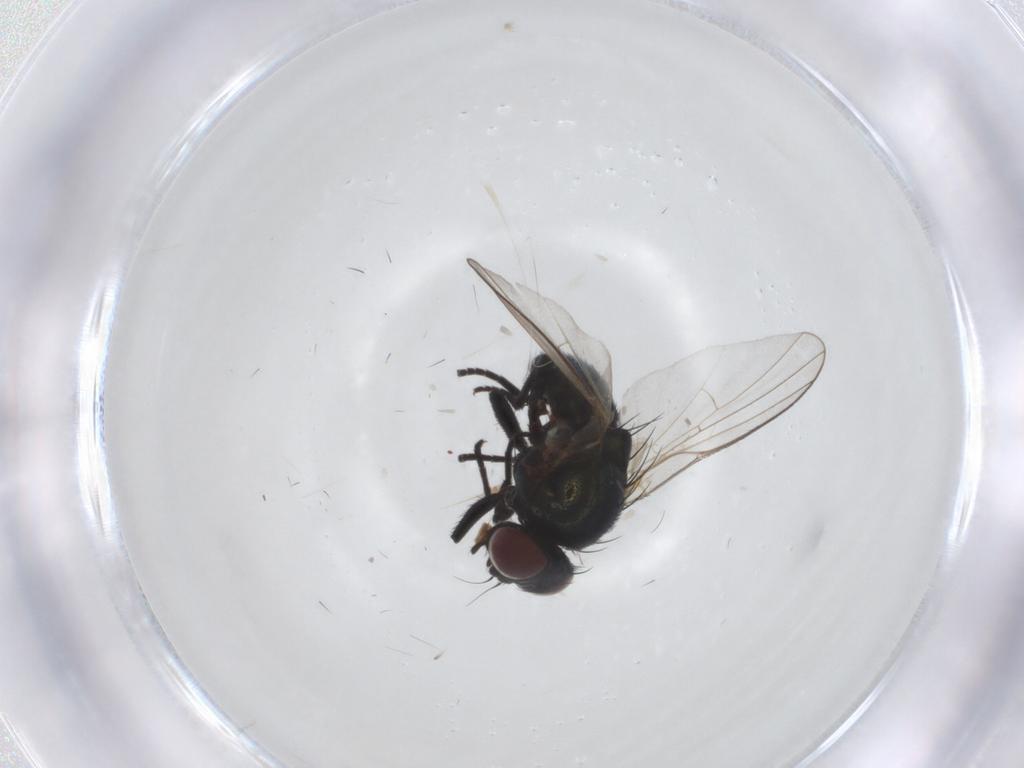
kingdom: Animalia
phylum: Arthropoda
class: Insecta
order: Diptera
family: Agromyzidae
